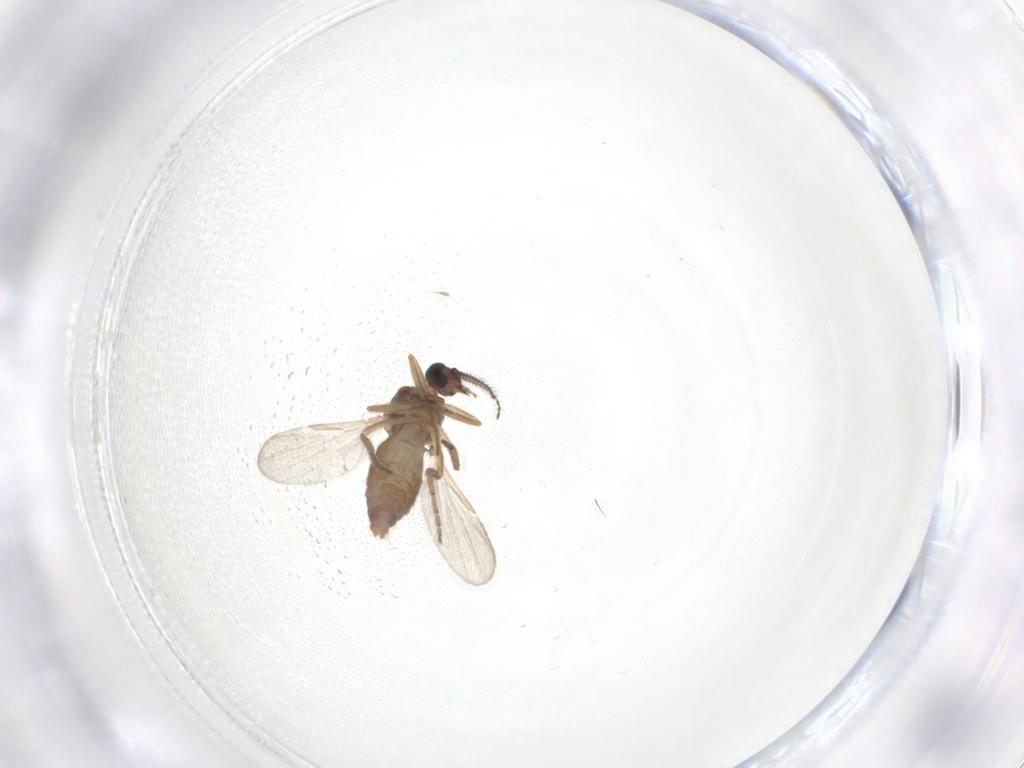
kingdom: Animalia
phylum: Arthropoda
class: Insecta
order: Diptera
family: Ceratopogonidae
